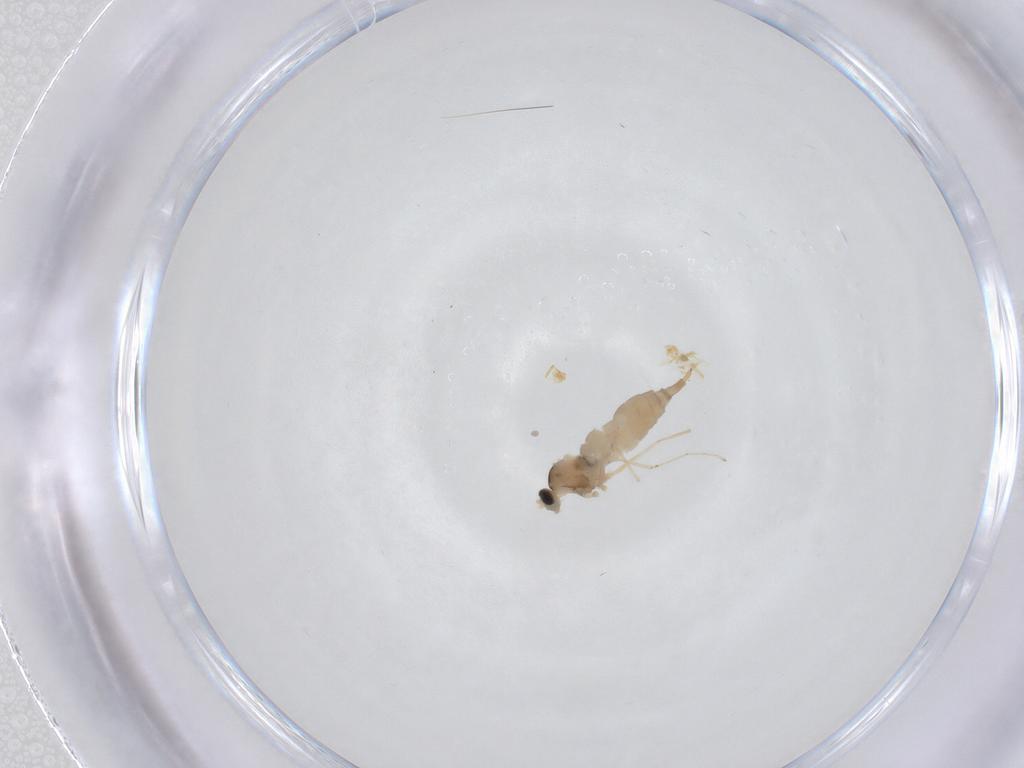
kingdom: Animalia
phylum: Arthropoda
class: Insecta
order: Diptera
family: Cecidomyiidae
